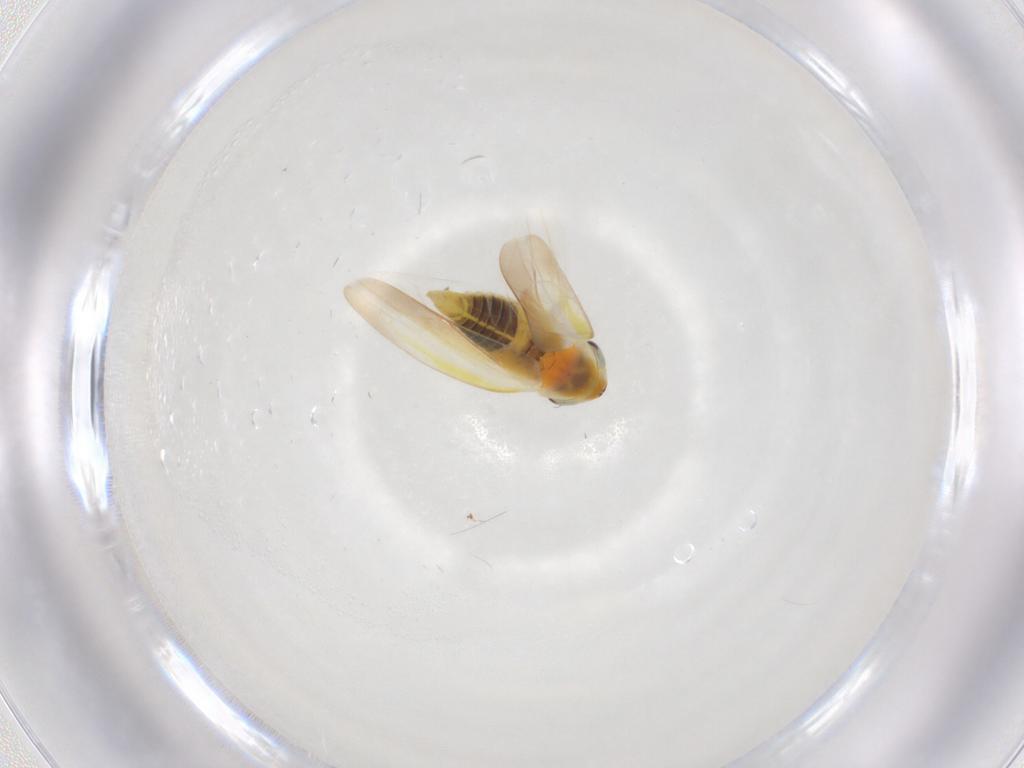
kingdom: Animalia
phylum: Arthropoda
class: Insecta
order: Hemiptera
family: Cicadellidae
